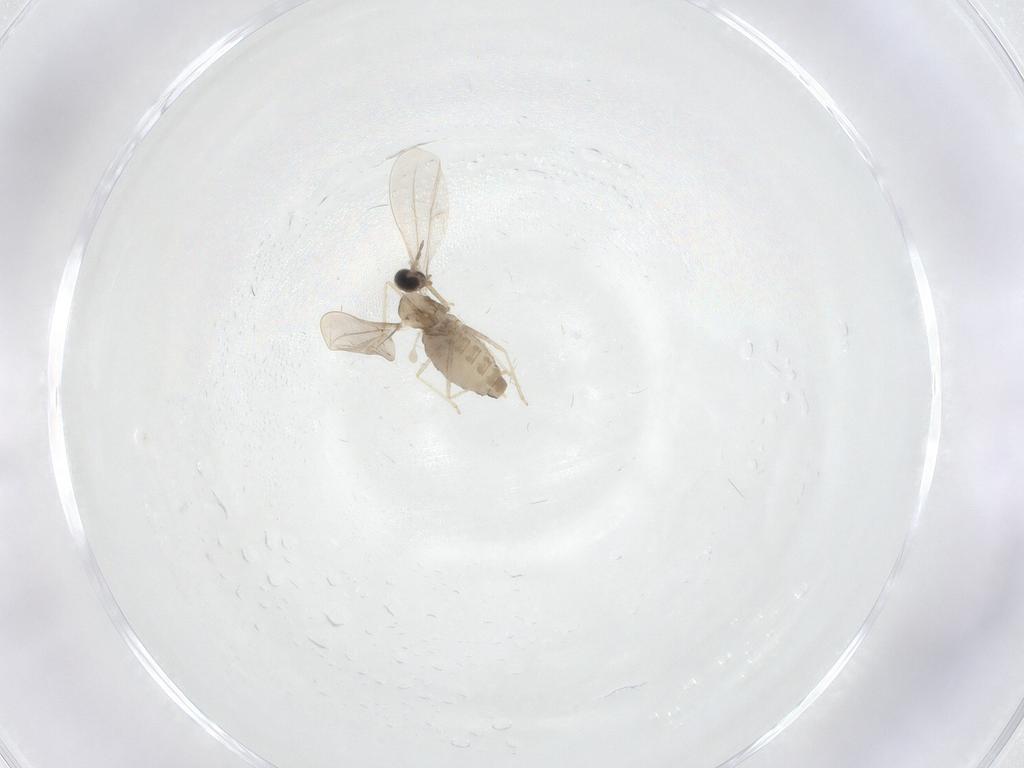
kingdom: Animalia
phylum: Arthropoda
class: Insecta
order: Diptera
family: Cecidomyiidae
